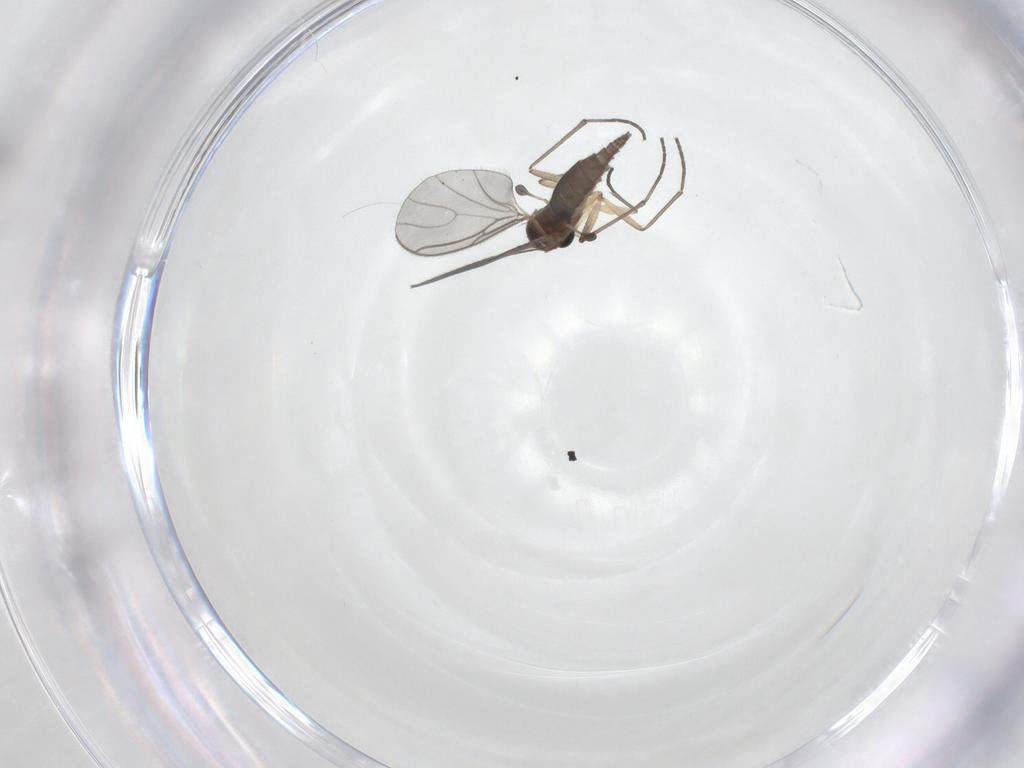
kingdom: Animalia
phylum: Arthropoda
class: Insecta
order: Diptera
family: Sciaridae
